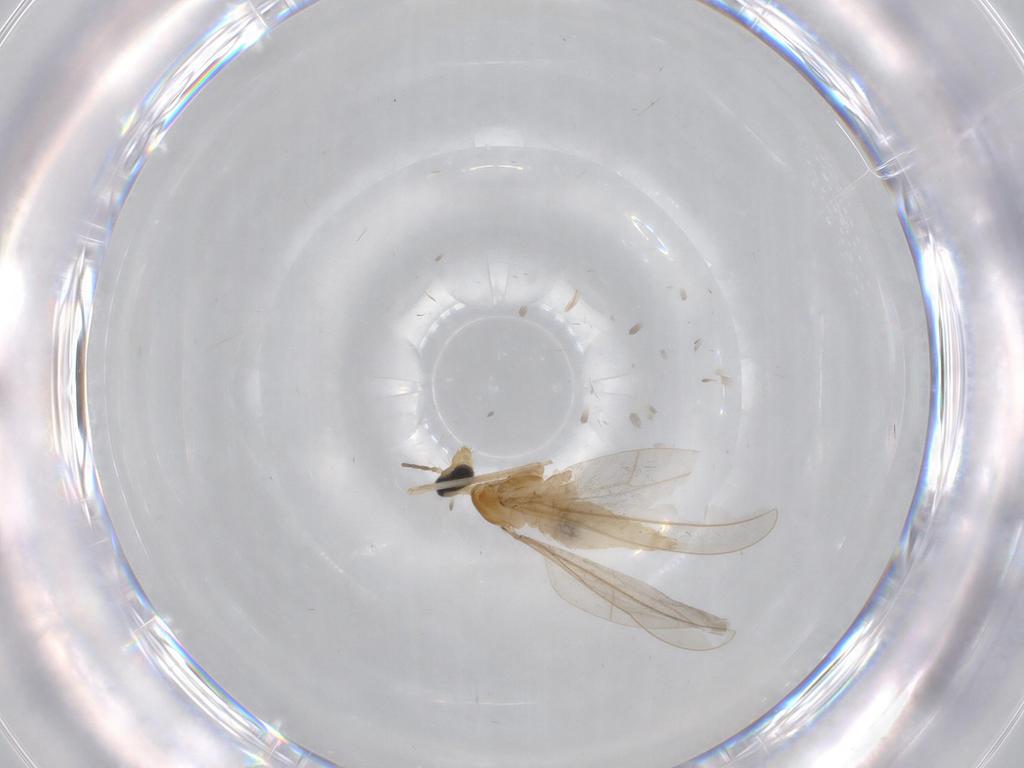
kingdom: Animalia
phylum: Arthropoda
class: Insecta
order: Diptera
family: Cecidomyiidae
